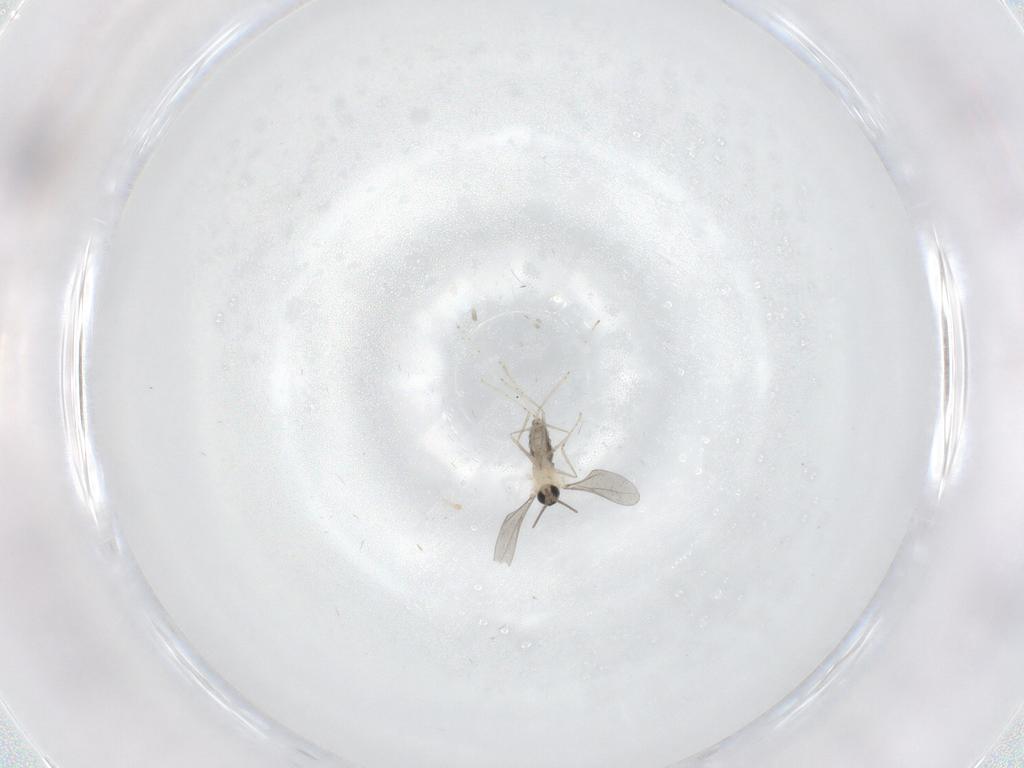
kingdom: Animalia
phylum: Arthropoda
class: Insecta
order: Diptera
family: Cecidomyiidae
